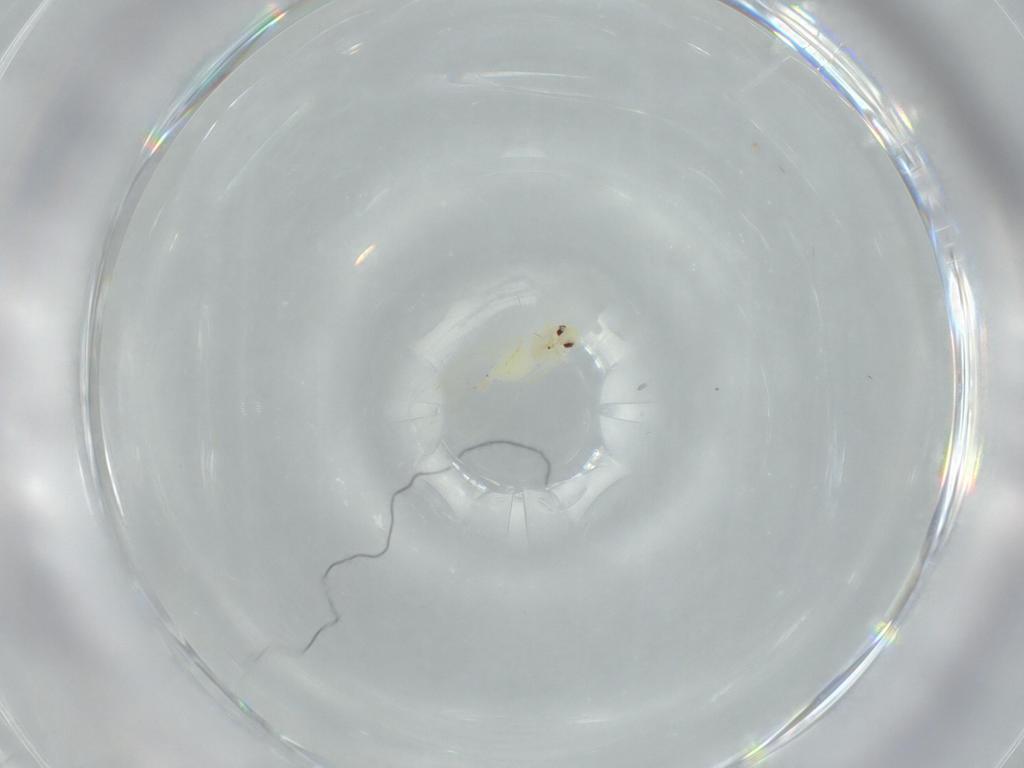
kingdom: Animalia
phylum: Arthropoda
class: Insecta
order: Hemiptera
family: Aleyrodidae
